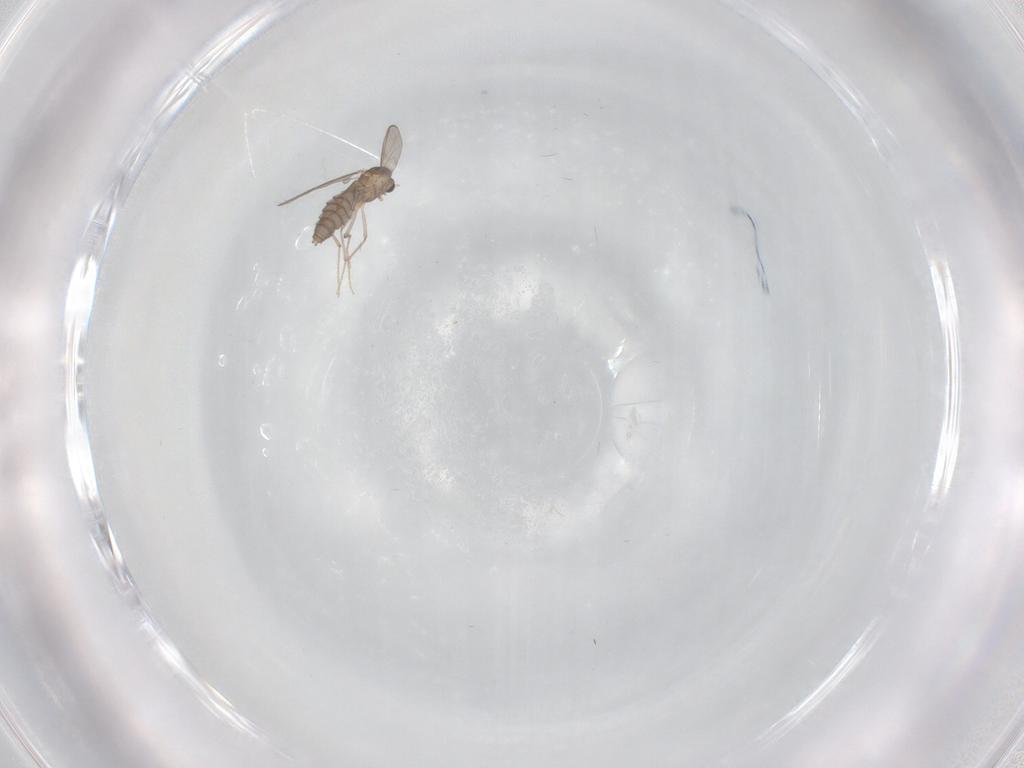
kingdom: Animalia
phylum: Arthropoda
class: Insecta
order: Diptera
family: Chironomidae
